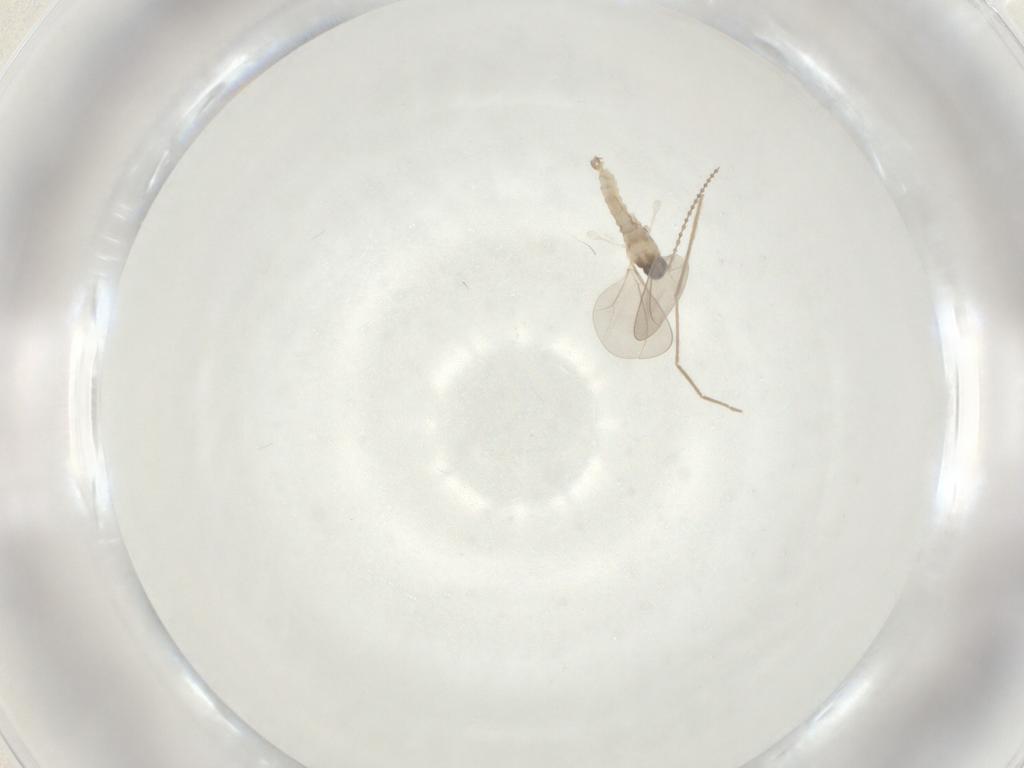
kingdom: Animalia
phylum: Arthropoda
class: Insecta
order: Diptera
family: Cecidomyiidae
